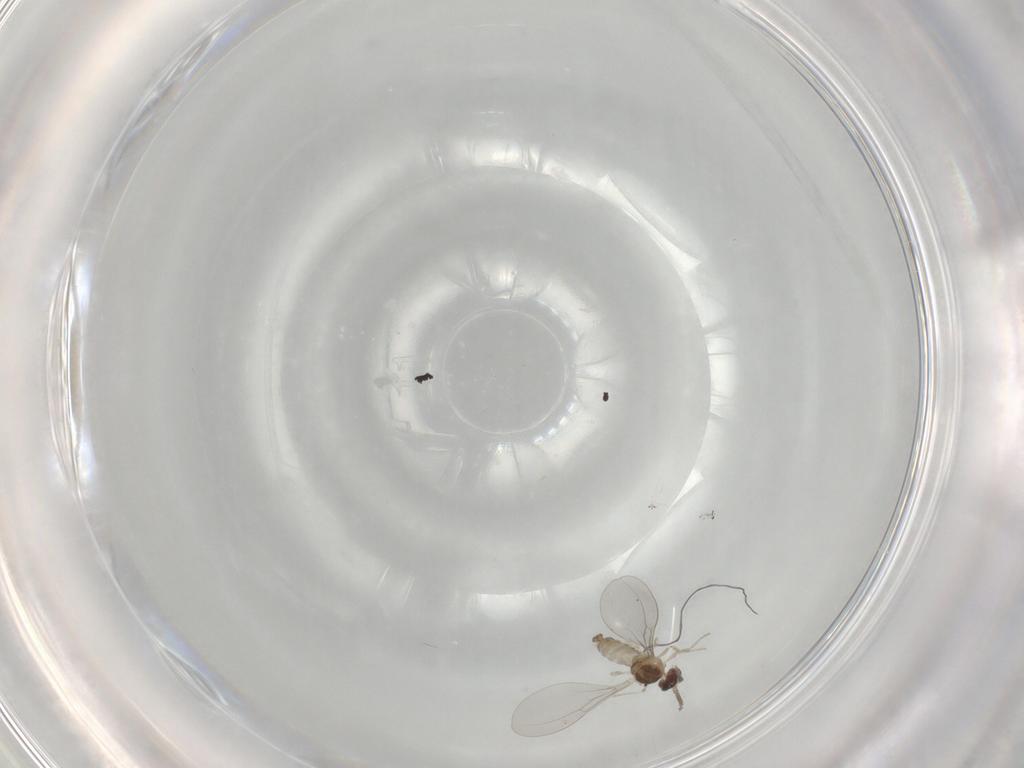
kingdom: Animalia
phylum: Arthropoda
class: Insecta
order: Diptera
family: Cecidomyiidae
